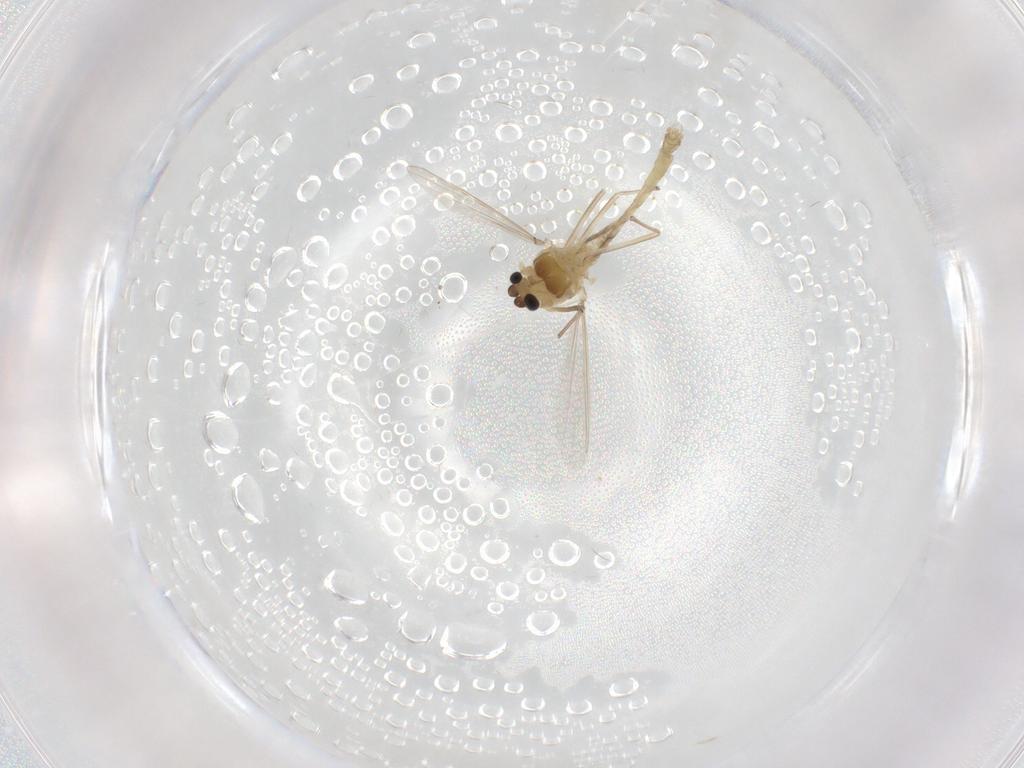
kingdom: Animalia
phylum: Arthropoda
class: Insecta
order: Diptera
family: Chironomidae
